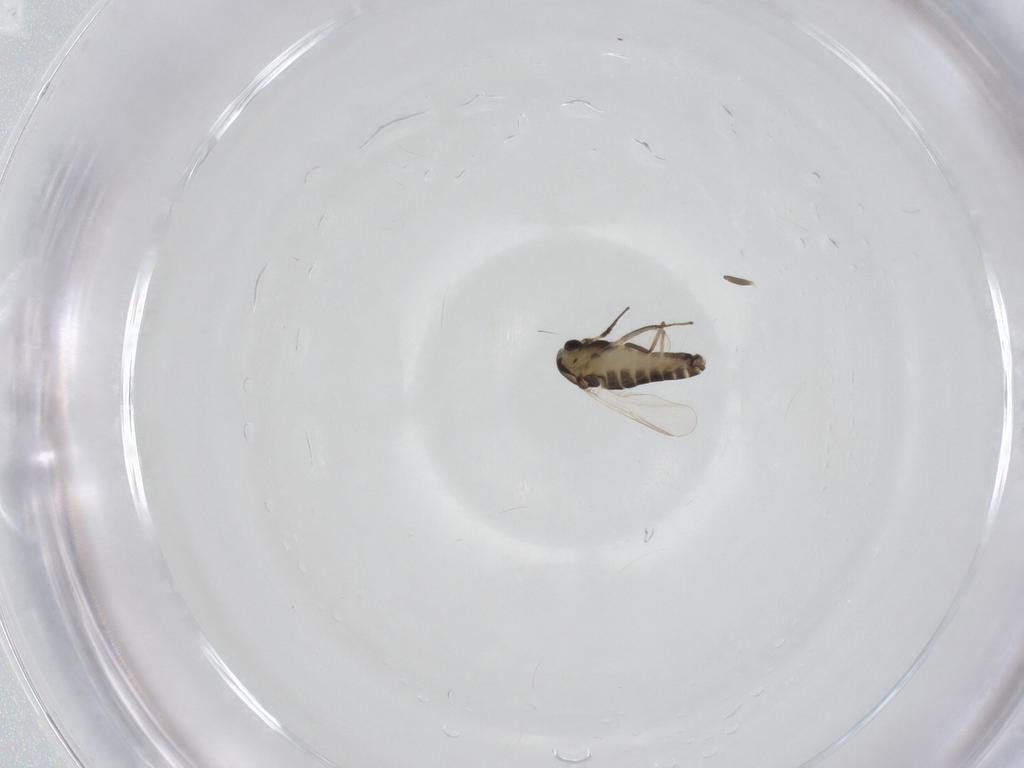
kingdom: Animalia
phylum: Arthropoda
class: Insecta
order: Diptera
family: Chironomidae
